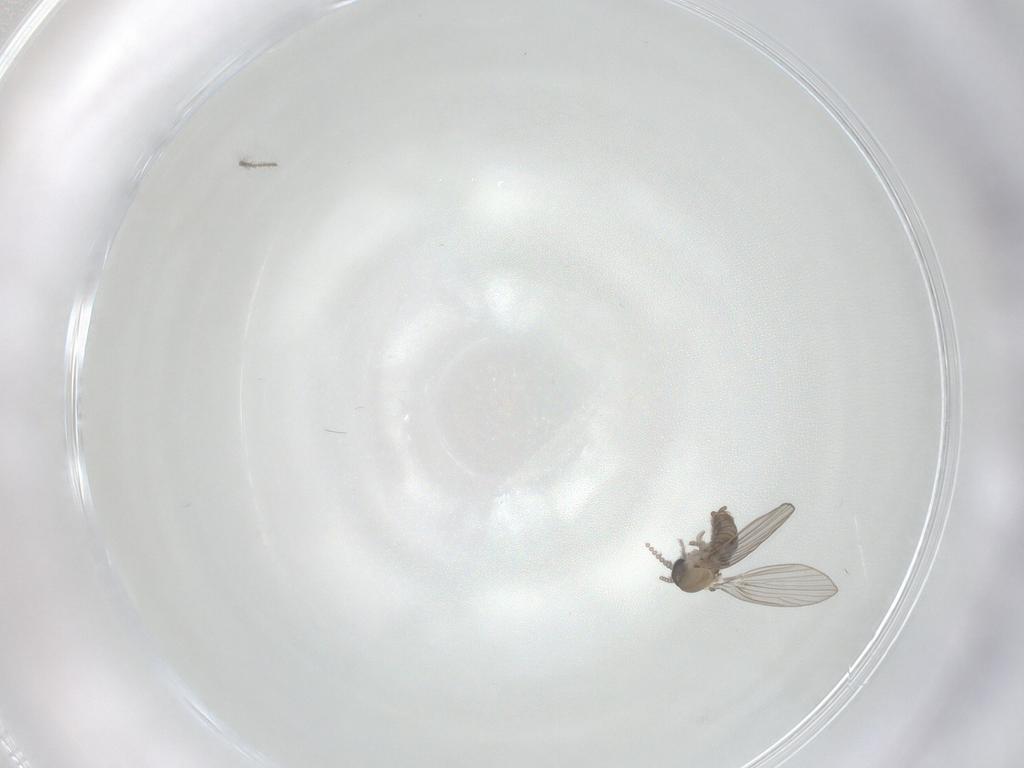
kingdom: Animalia
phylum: Arthropoda
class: Insecta
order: Diptera
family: Psychodidae
